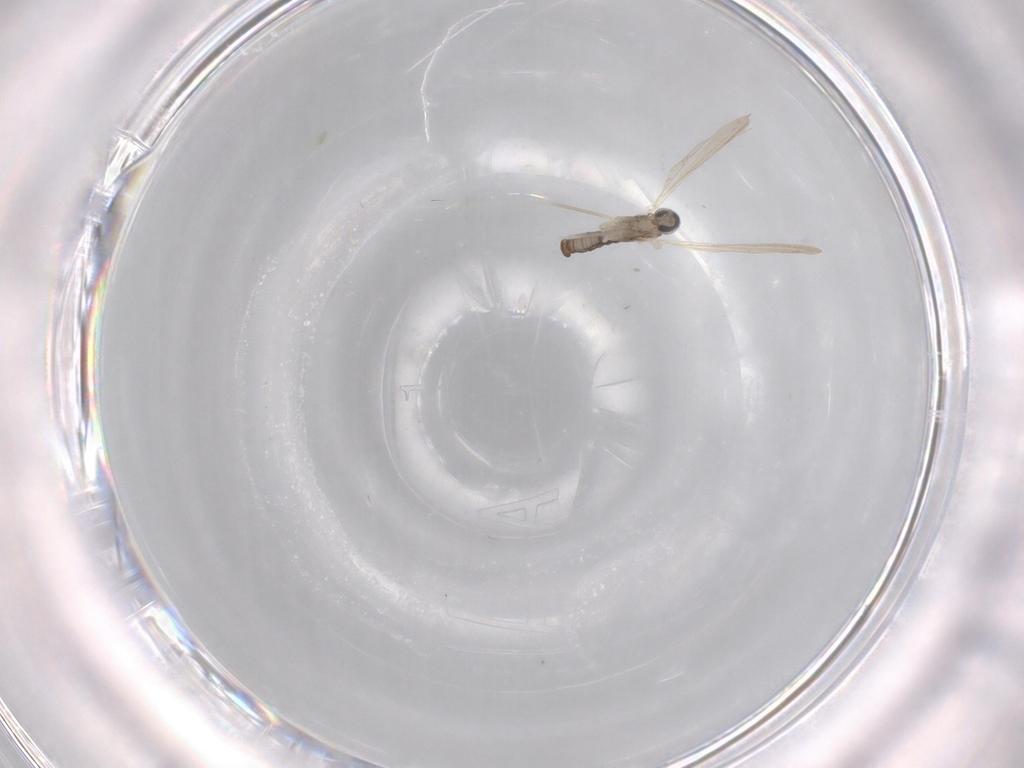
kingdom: Animalia
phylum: Arthropoda
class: Insecta
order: Diptera
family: Cecidomyiidae
